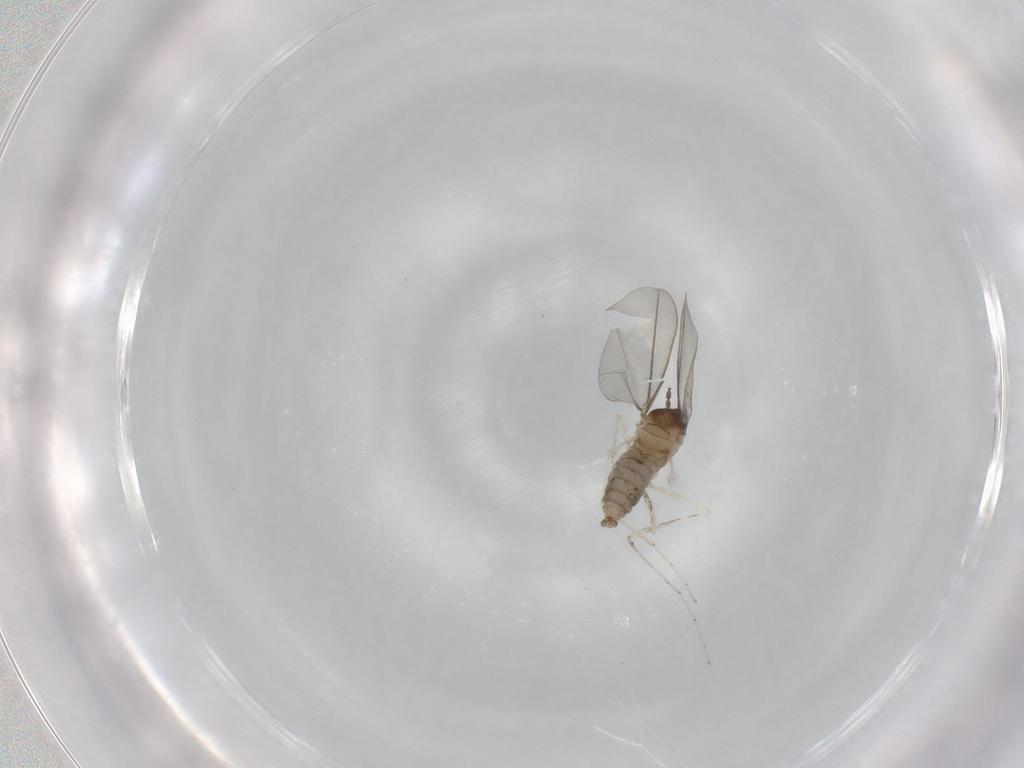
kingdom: Animalia
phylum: Arthropoda
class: Insecta
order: Diptera
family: Cecidomyiidae
